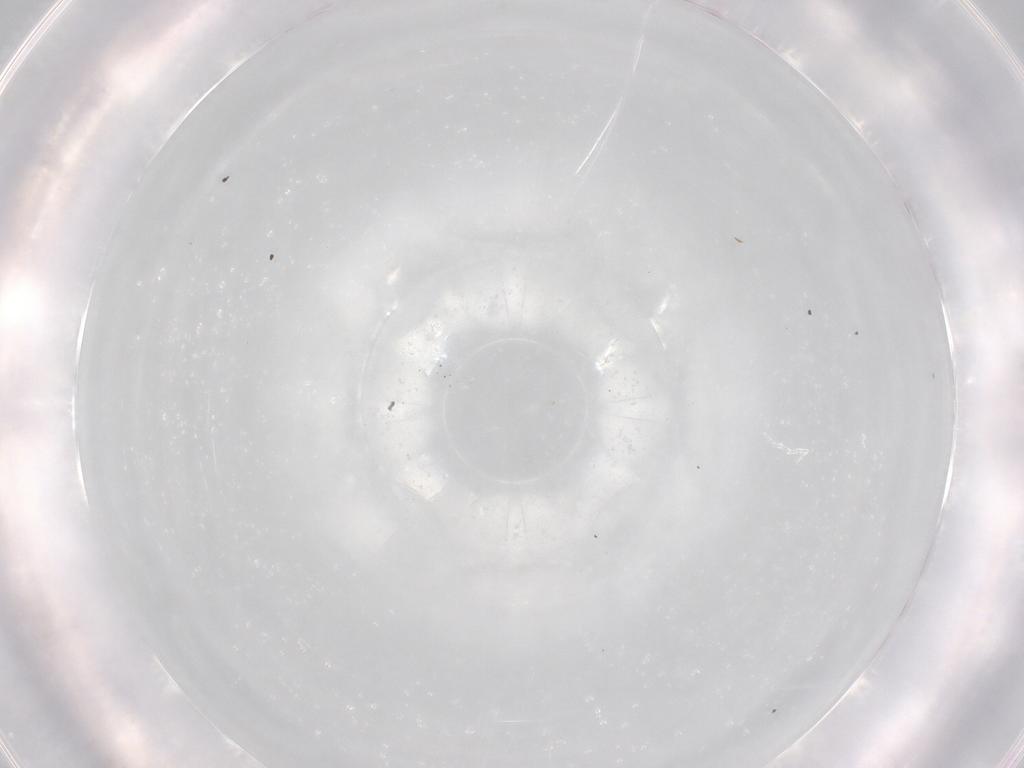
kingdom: Animalia
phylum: Arthropoda
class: Arachnida
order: Sarcoptiformes
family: Phenopelopidae
